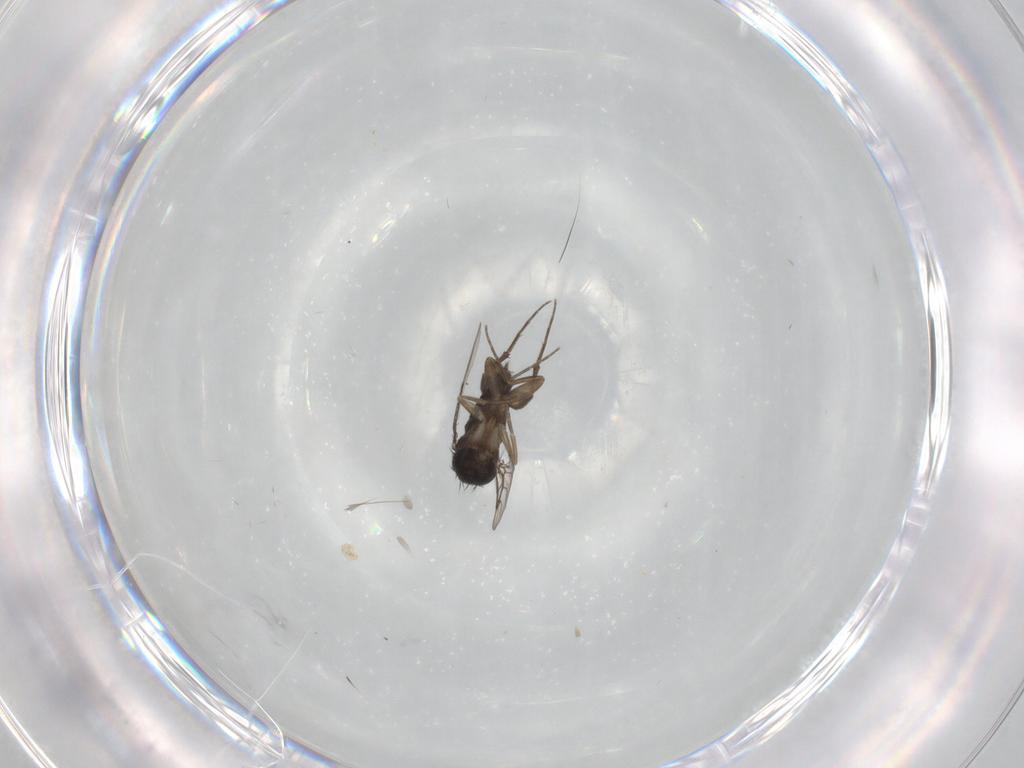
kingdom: Animalia
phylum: Arthropoda
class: Insecta
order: Diptera
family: Phoridae
